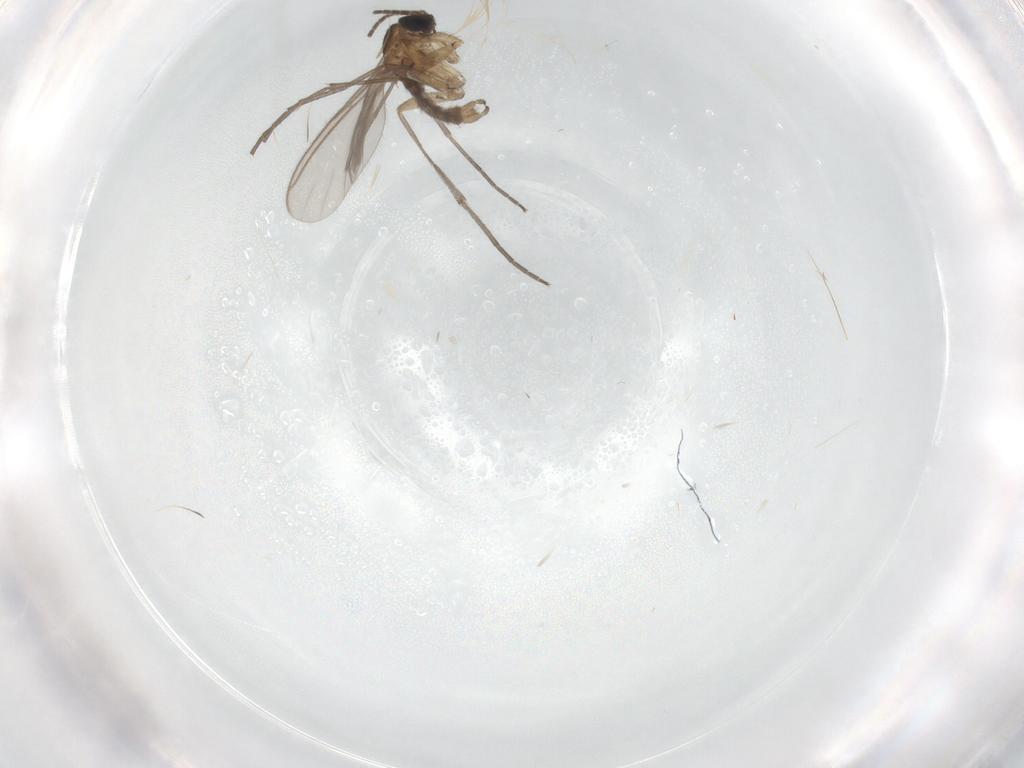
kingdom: Animalia
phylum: Arthropoda
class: Insecta
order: Diptera
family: Sciaridae
